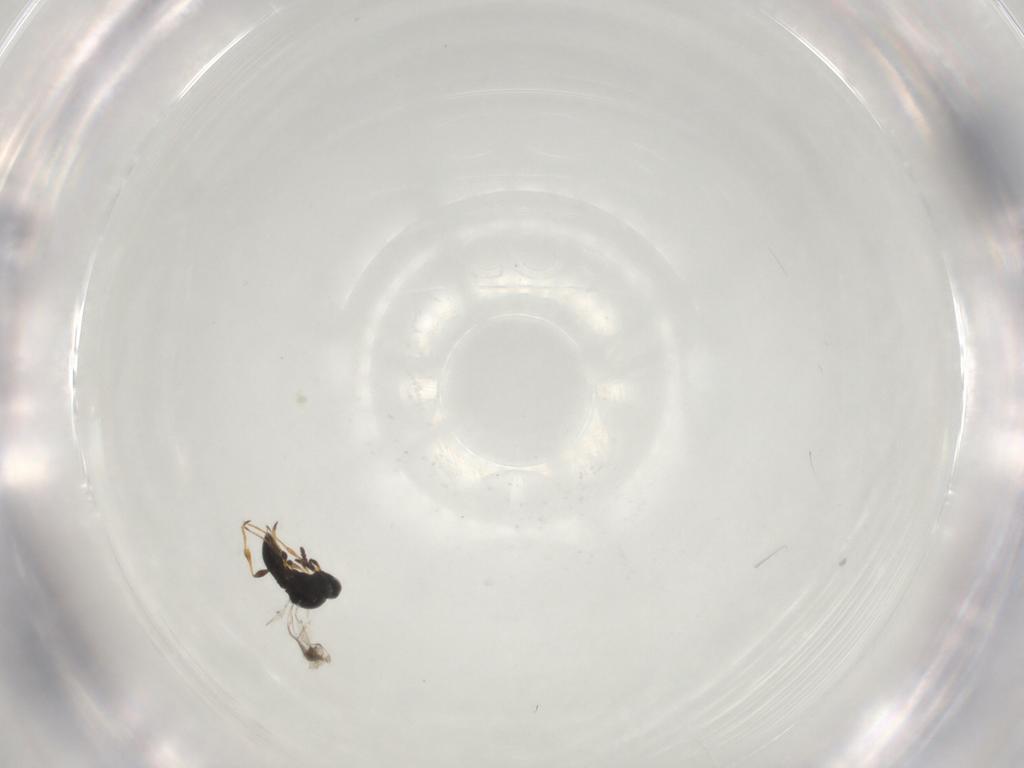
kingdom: Animalia
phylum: Arthropoda
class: Insecta
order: Hymenoptera
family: Platygastridae
